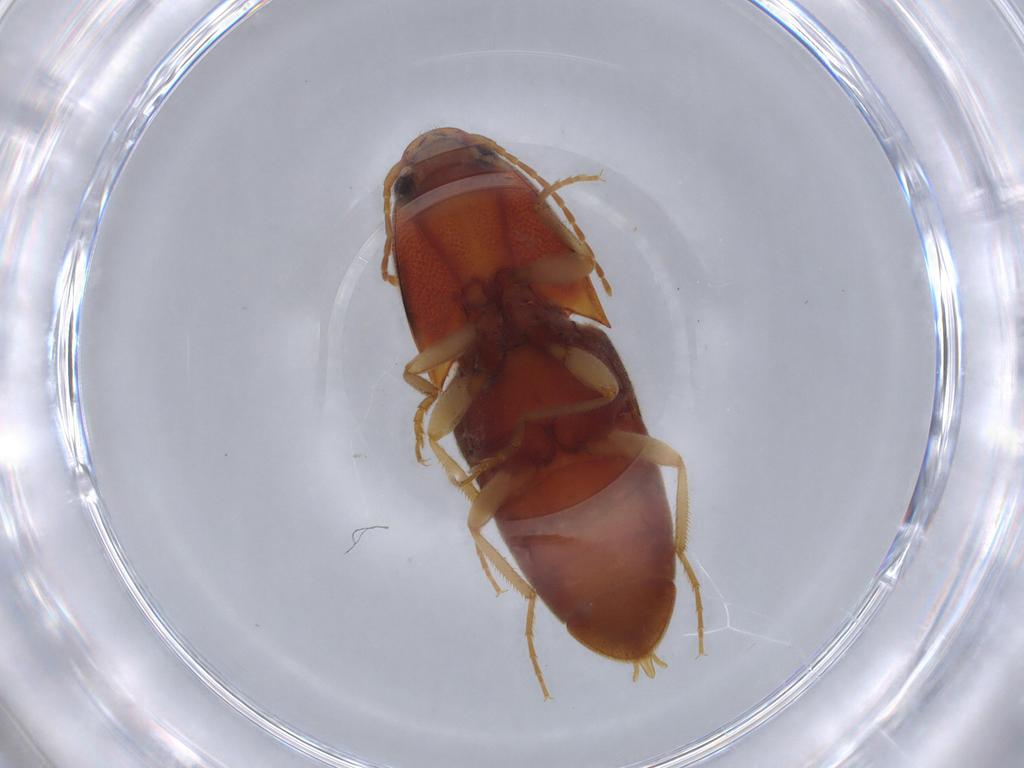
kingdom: Animalia
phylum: Arthropoda
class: Insecta
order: Coleoptera
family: Elateridae
